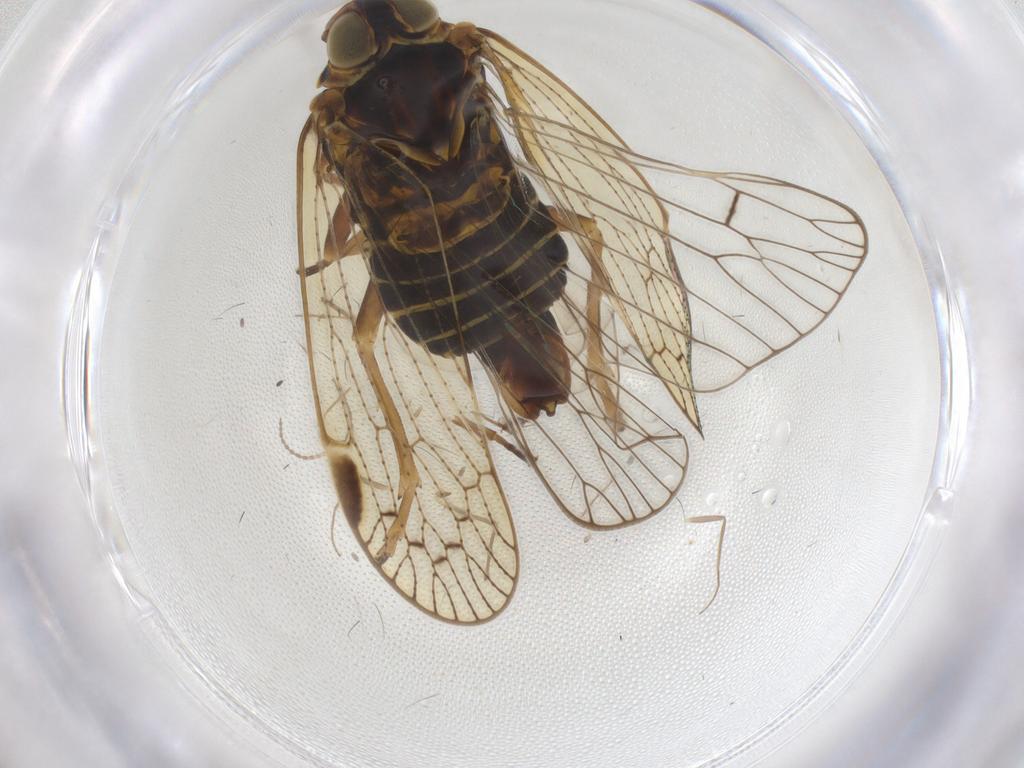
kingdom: Animalia
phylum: Arthropoda
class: Insecta
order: Hemiptera
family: Cixiidae
